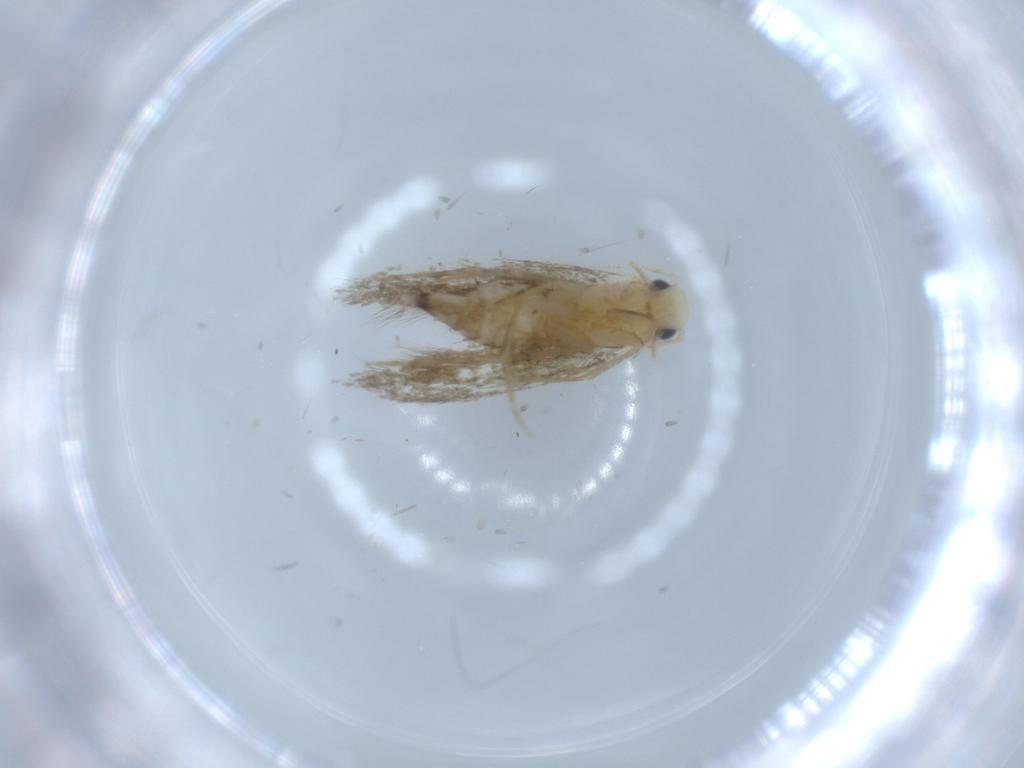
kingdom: Animalia
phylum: Arthropoda
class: Insecta
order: Lepidoptera
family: Tineidae
